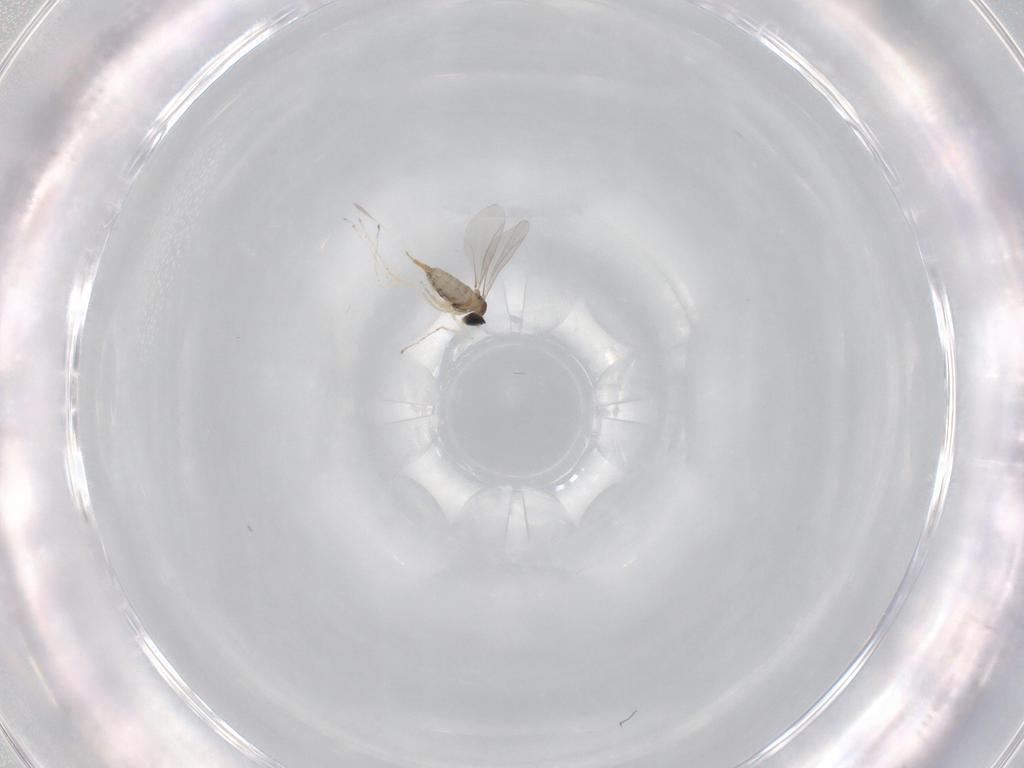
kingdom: Animalia
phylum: Arthropoda
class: Insecta
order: Diptera
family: Cecidomyiidae
